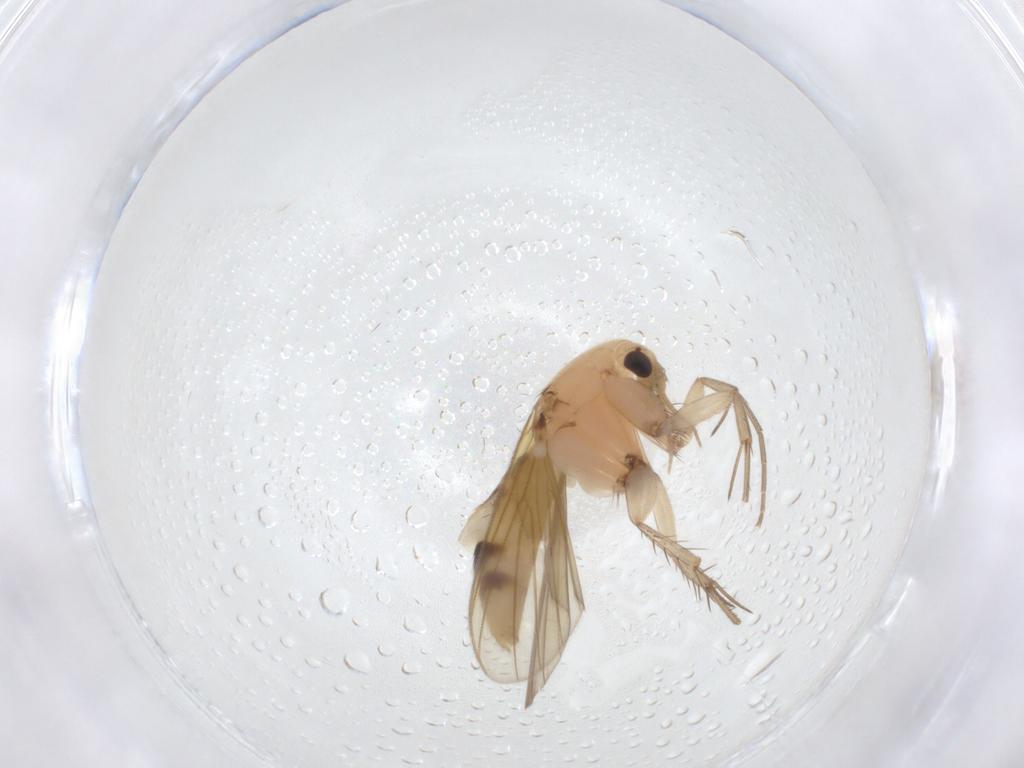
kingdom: Animalia
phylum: Arthropoda
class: Insecta
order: Diptera
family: Mycetophilidae
